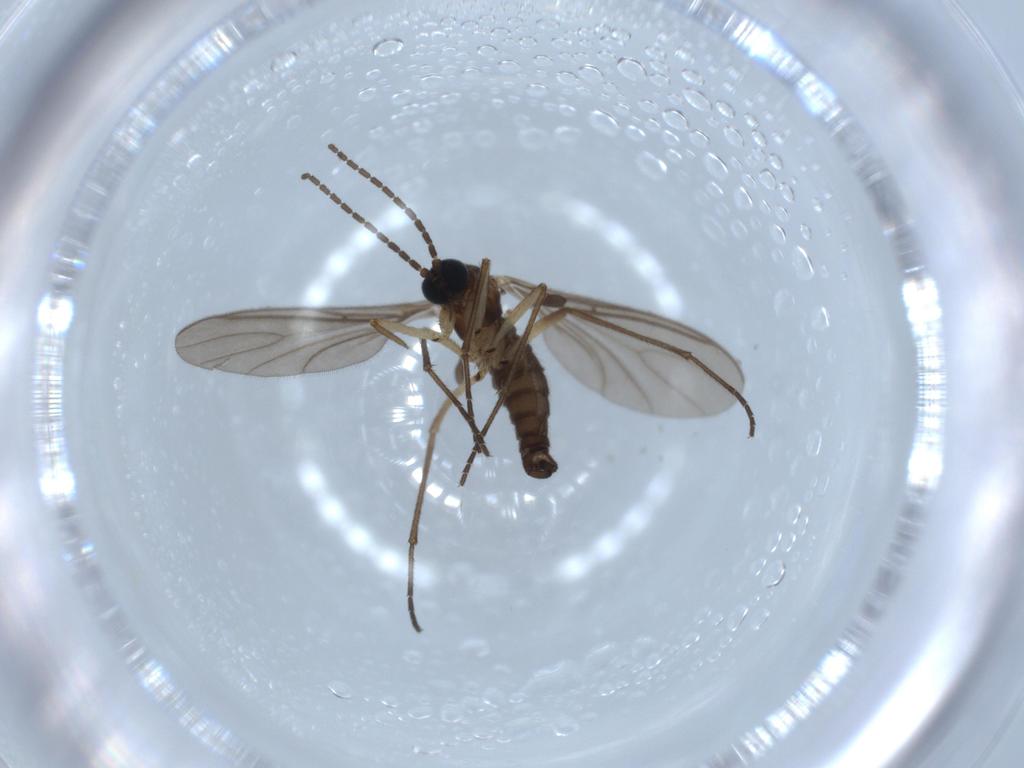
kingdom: Animalia
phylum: Arthropoda
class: Insecta
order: Diptera
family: Sciaridae
